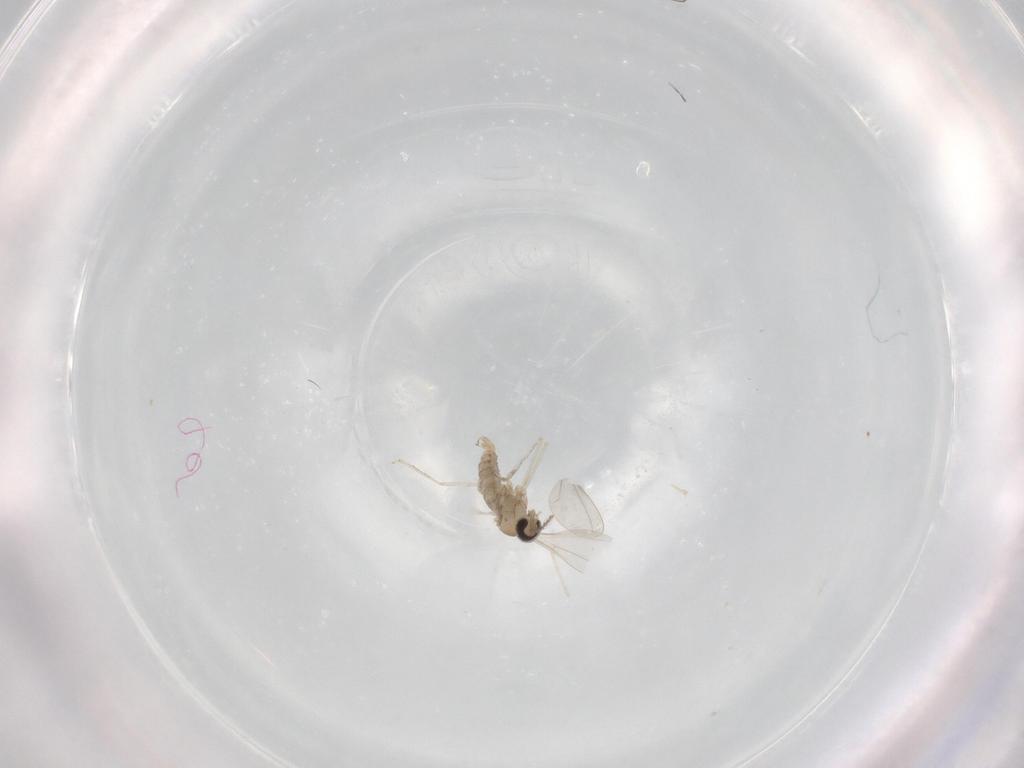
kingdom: Animalia
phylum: Arthropoda
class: Insecta
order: Diptera
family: Cecidomyiidae
